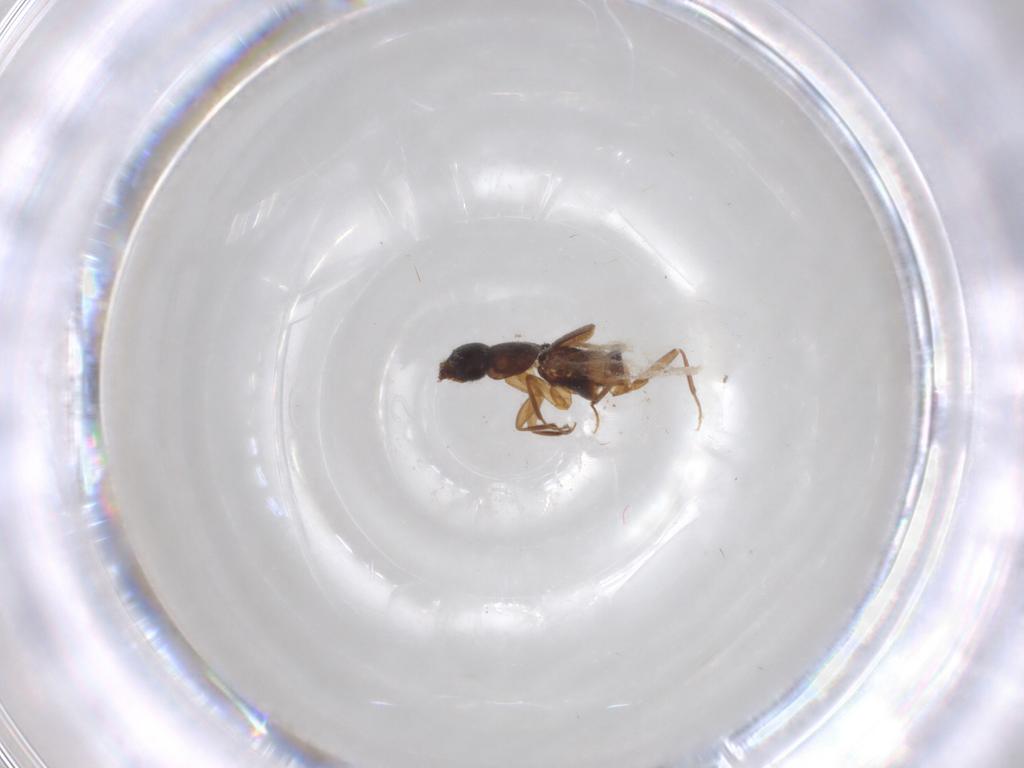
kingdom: Animalia
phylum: Arthropoda
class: Insecta
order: Coleoptera
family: Staphylinidae
